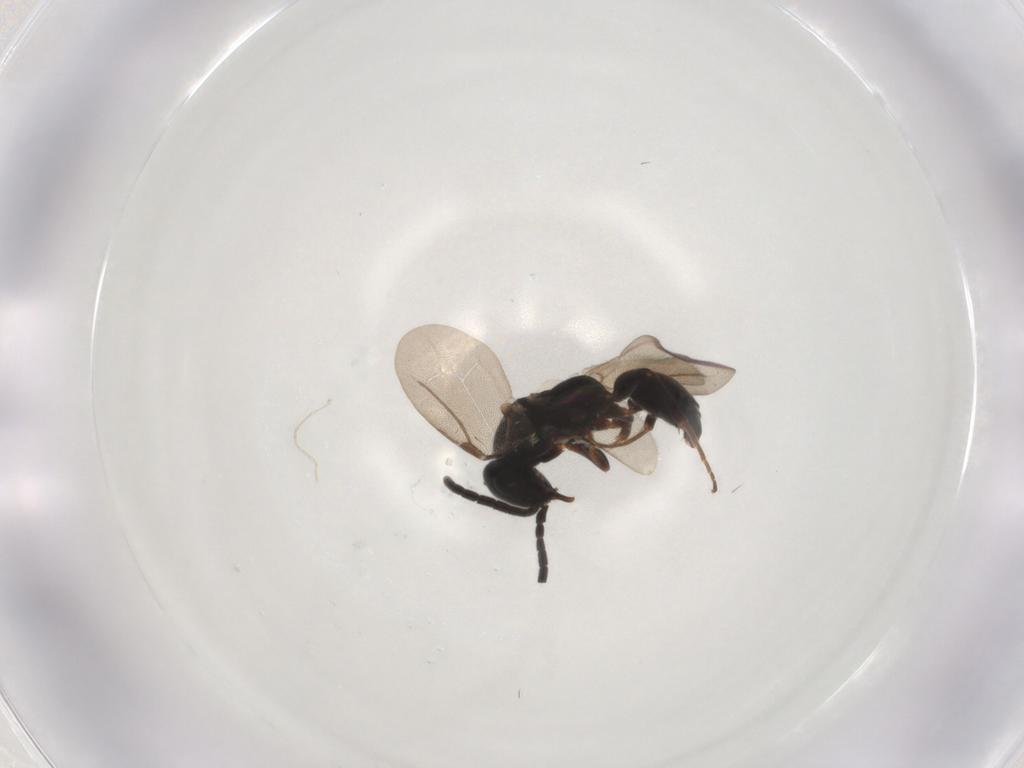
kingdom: Animalia
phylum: Arthropoda
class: Insecta
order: Hymenoptera
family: Bethylidae
